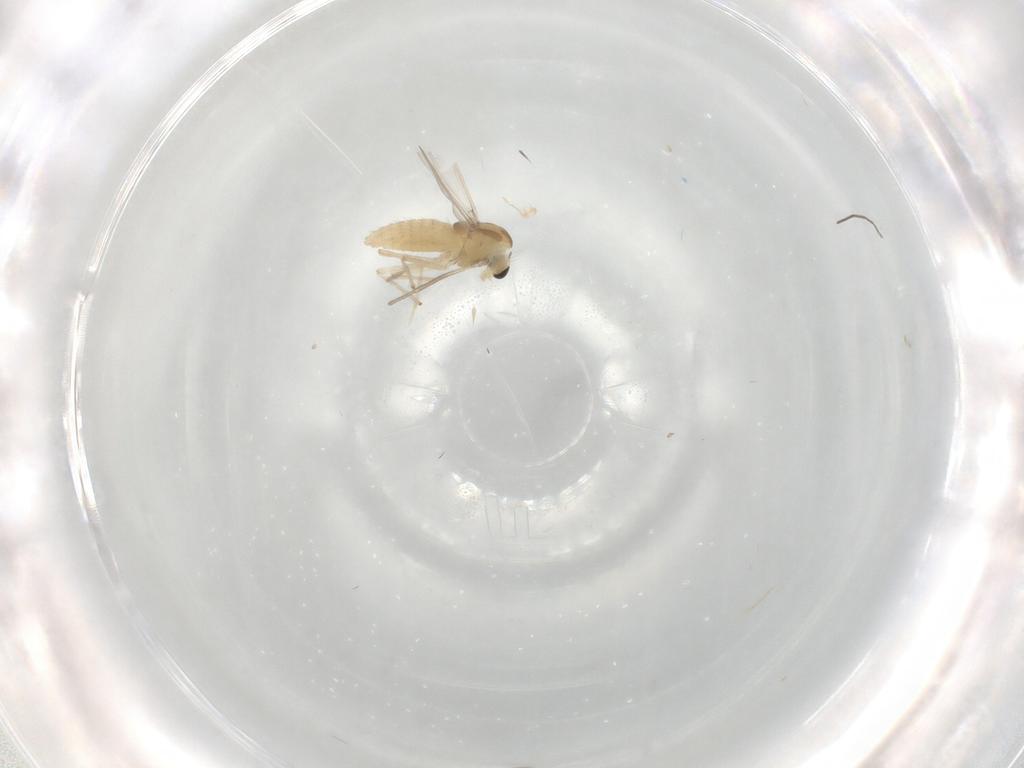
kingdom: Animalia
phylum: Arthropoda
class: Insecta
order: Diptera
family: Chironomidae
